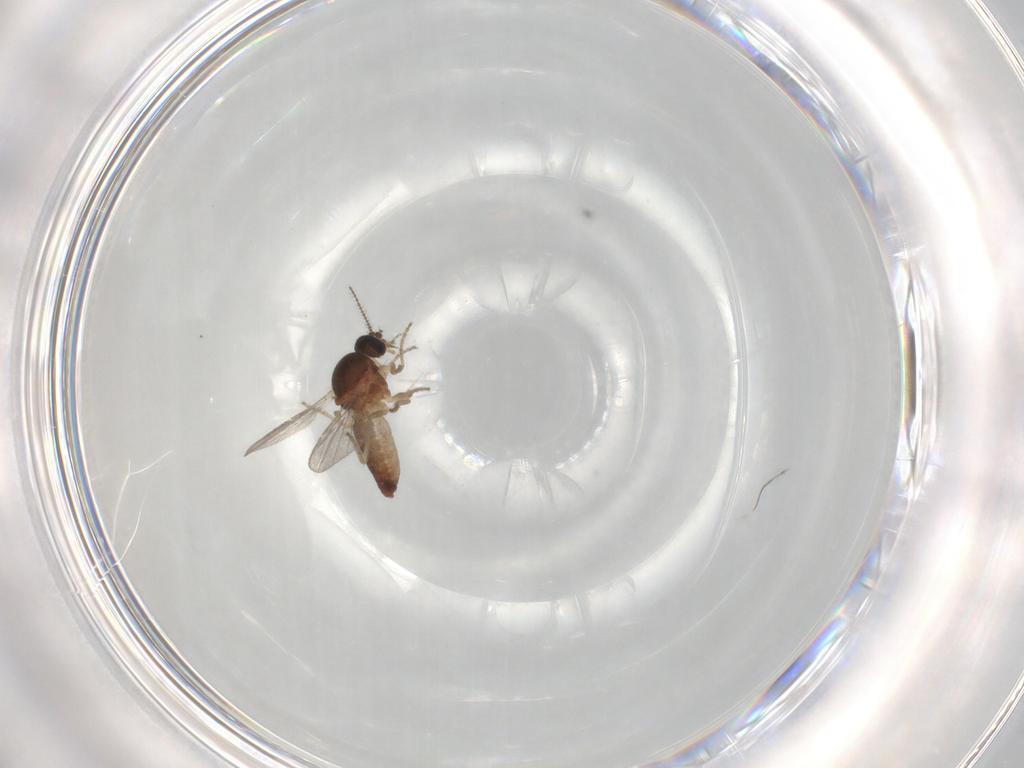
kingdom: Animalia
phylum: Arthropoda
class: Insecta
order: Diptera
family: Ceratopogonidae
